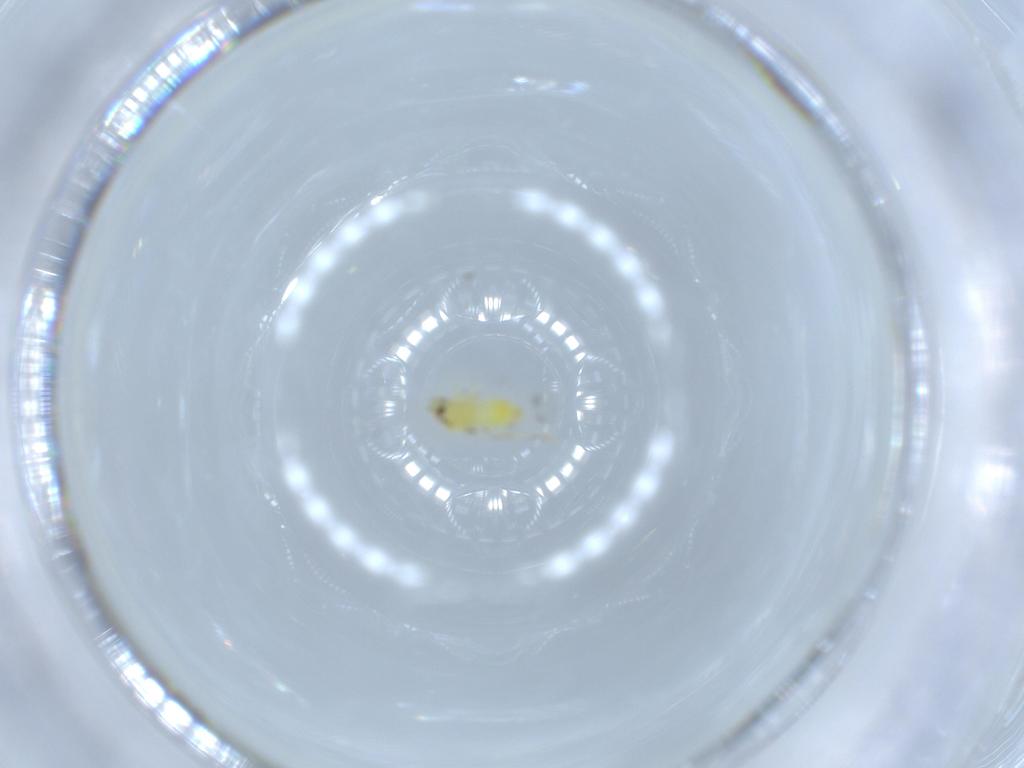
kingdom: Animalia
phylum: Arthropoda
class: Insecta
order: Hemiptera
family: Aleyrodidae
